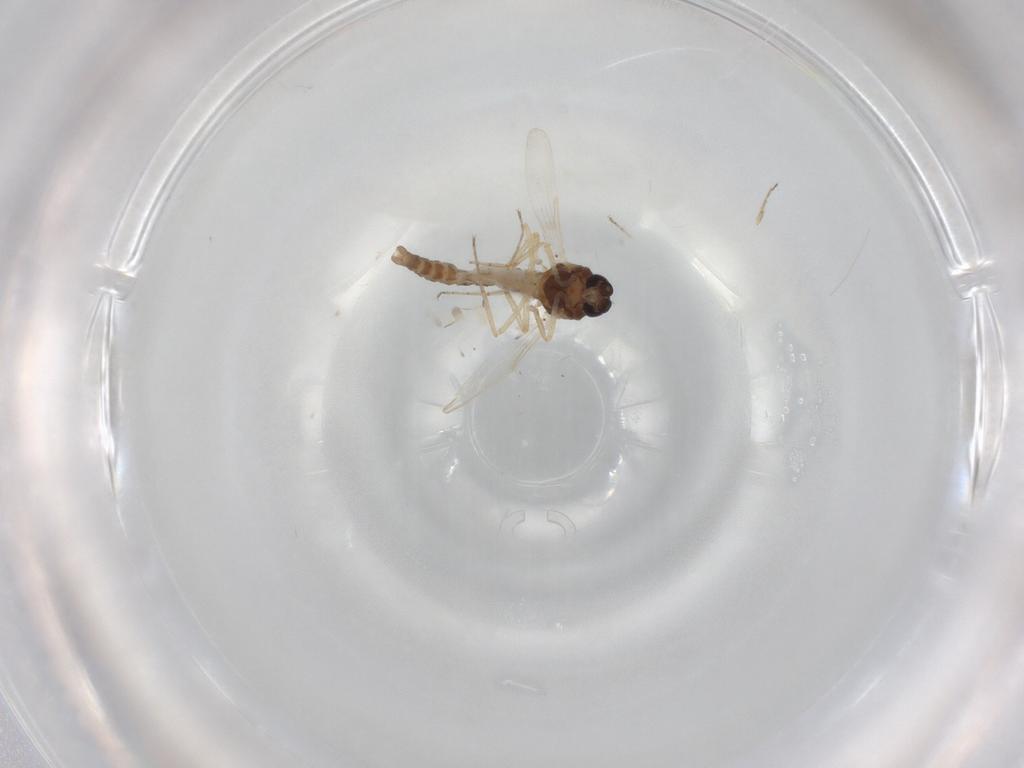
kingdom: Animalia
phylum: Arthropoda
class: Insecta
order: Diptera
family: Ceratopogonidae
